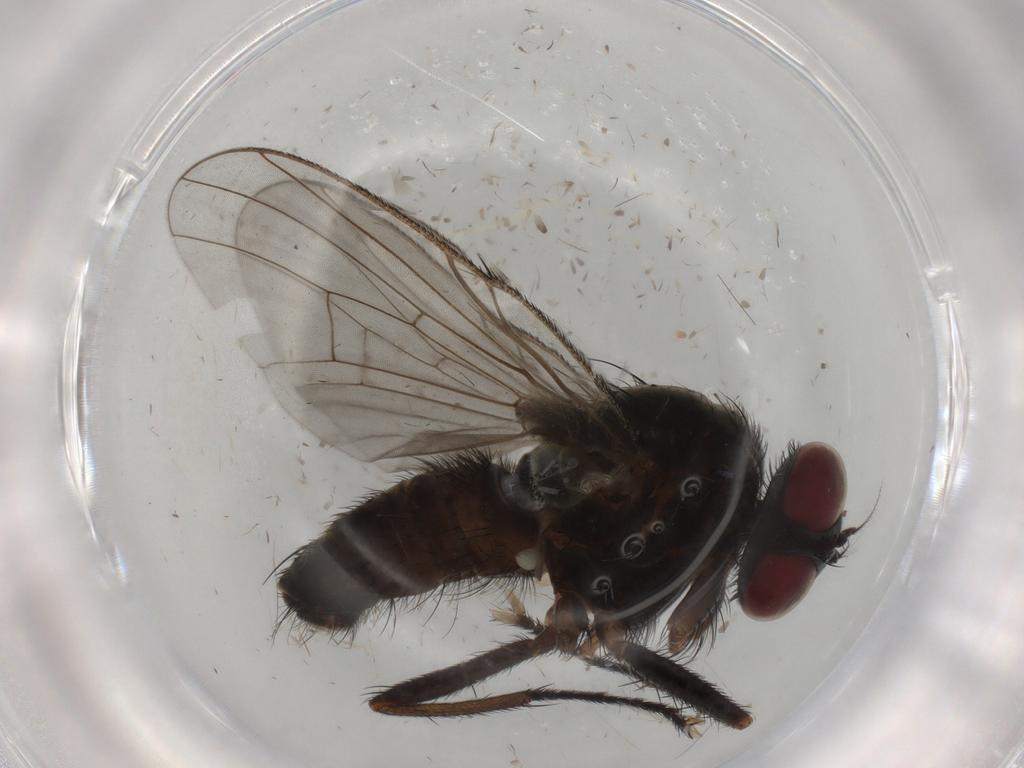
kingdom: Animalia
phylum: Arthropoda
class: Insecta
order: Diptera
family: Muscidae
